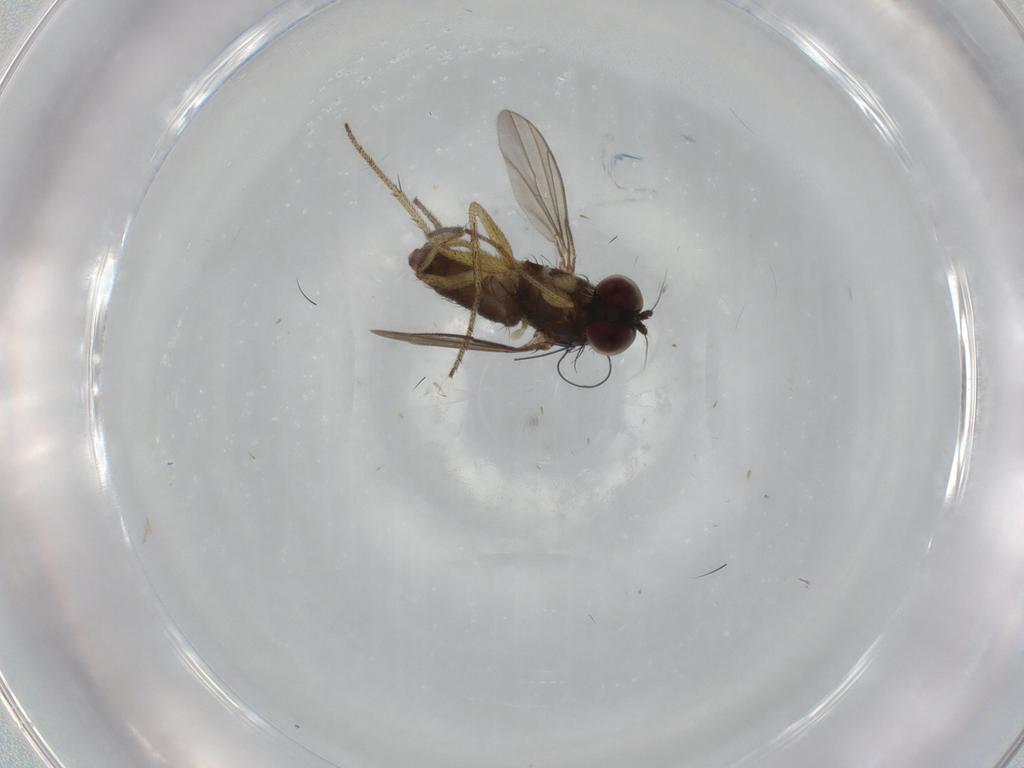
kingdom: Animalia
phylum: Arthropoda
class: Insecta
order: Diptera
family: Dolichopodidae
